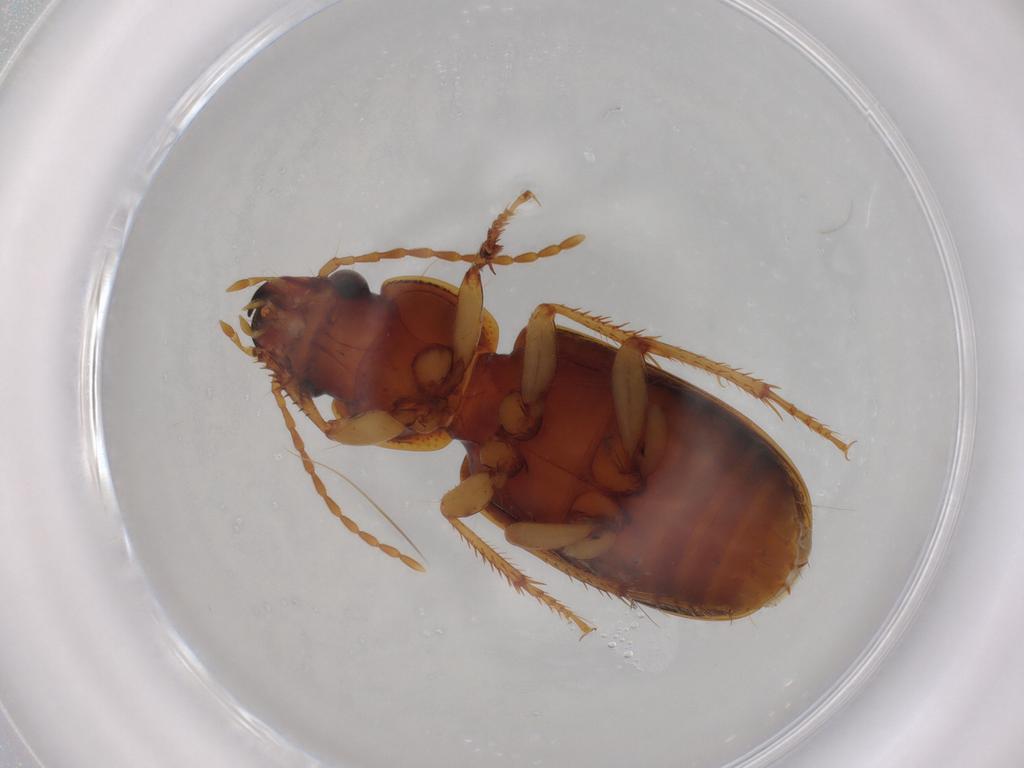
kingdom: Animalia
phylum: Arthropoda
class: Insecta
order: Coleoptera
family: Carabidae
